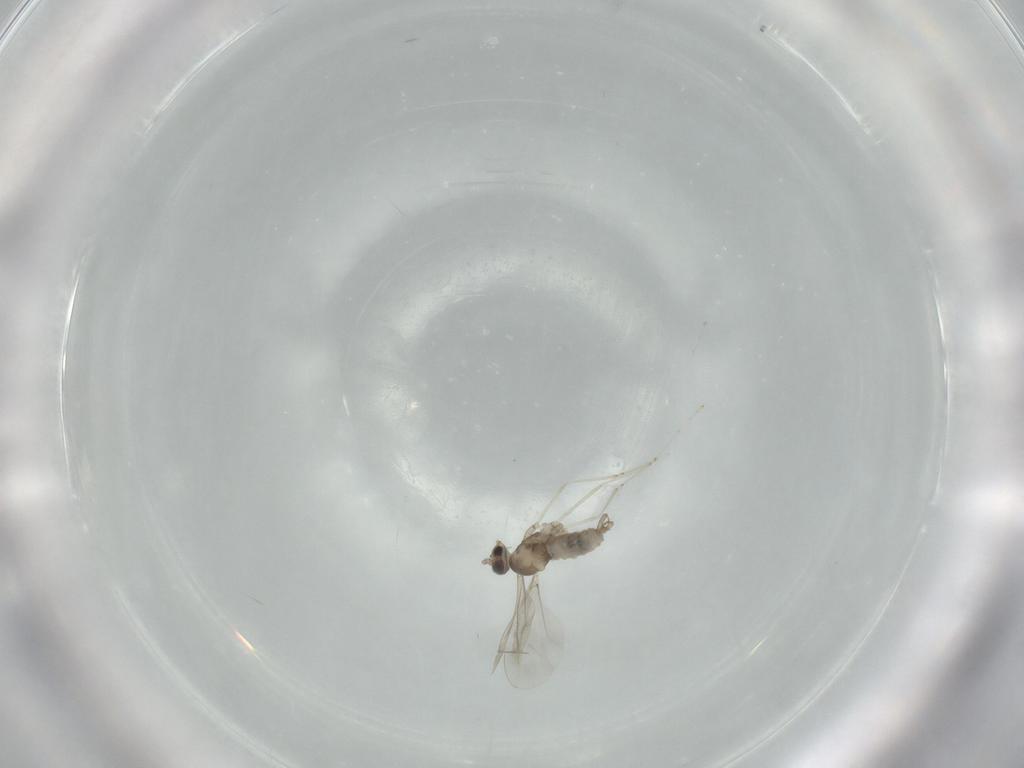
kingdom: Animalia
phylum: Arthropoda
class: Insecta
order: Diptera
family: Cecidomyiidae
